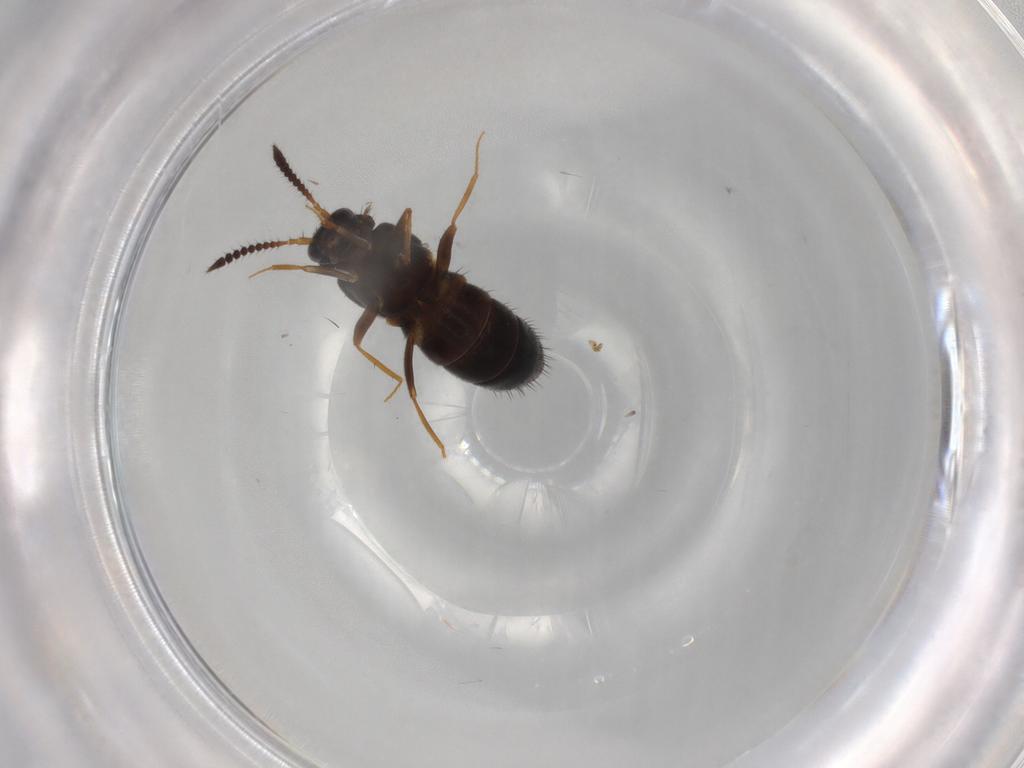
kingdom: Animalia
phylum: Arthropoda
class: Insecta
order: Coleoptera
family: Staphylinidae
